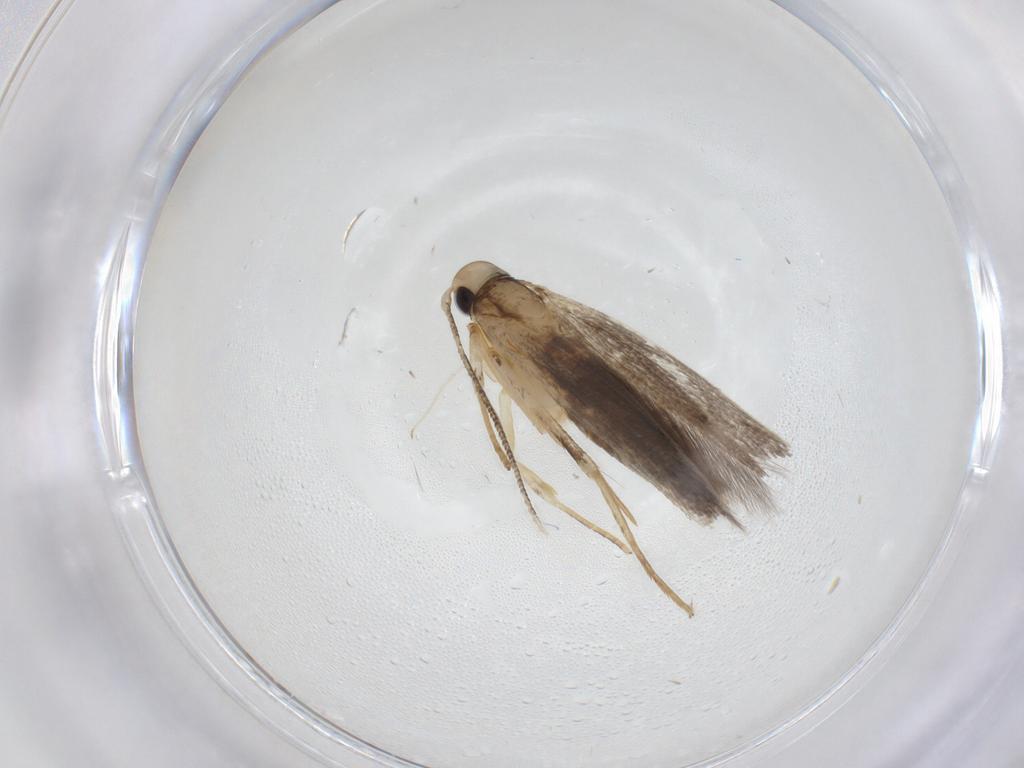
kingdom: Animalia
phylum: Arthropoda
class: Insecta
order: Lepidoptera
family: Cosmopterigidae
